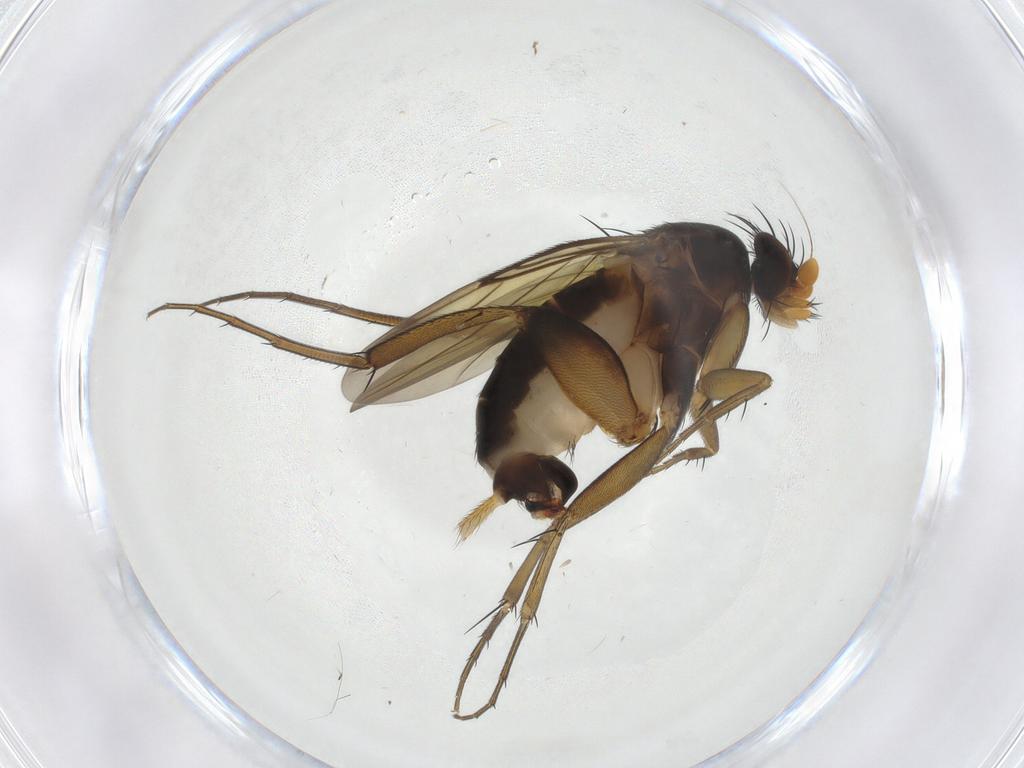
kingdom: Animalia
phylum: Arthropoda
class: Insecta
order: Diptera
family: Phoridae
